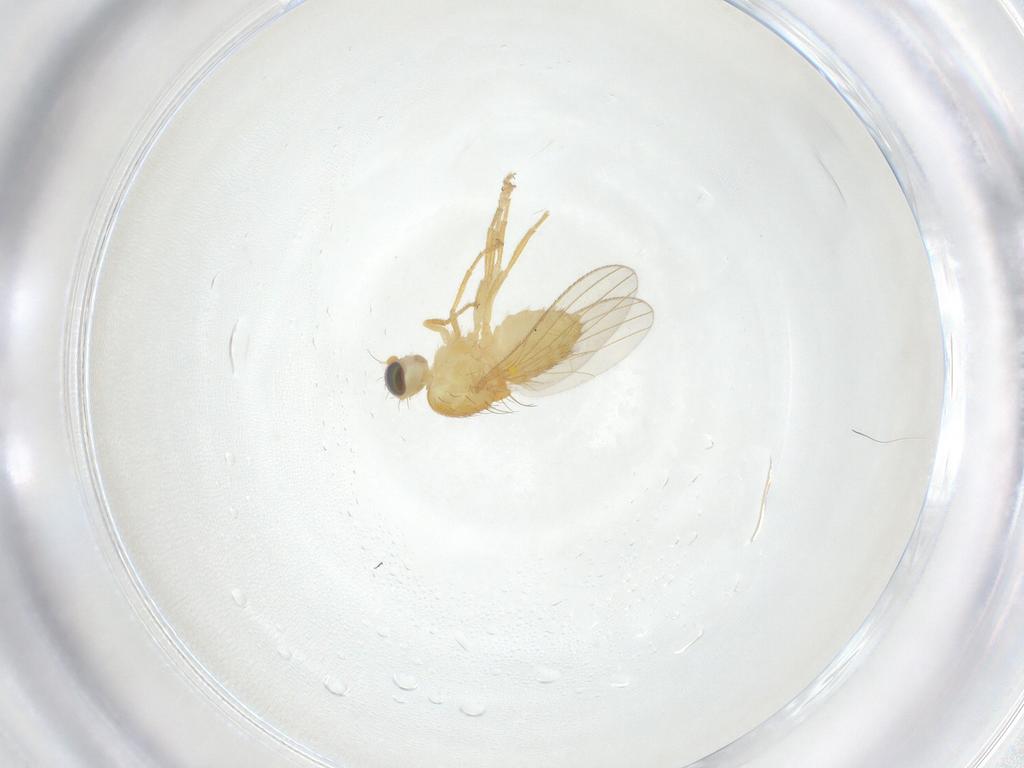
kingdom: Animalia
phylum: Arthropoda
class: Insecta
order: Diptera
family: Chyromyidae
